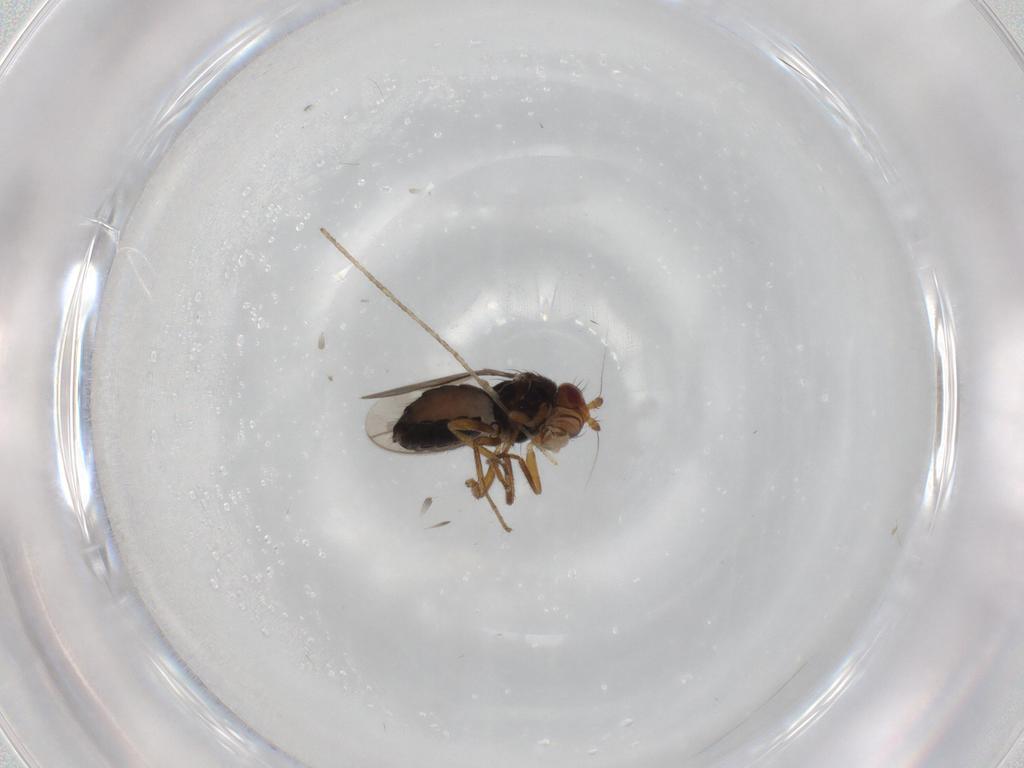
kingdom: Animalia
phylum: Arthropoda
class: Insecta
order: Diptera
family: Sphaeroceridae
